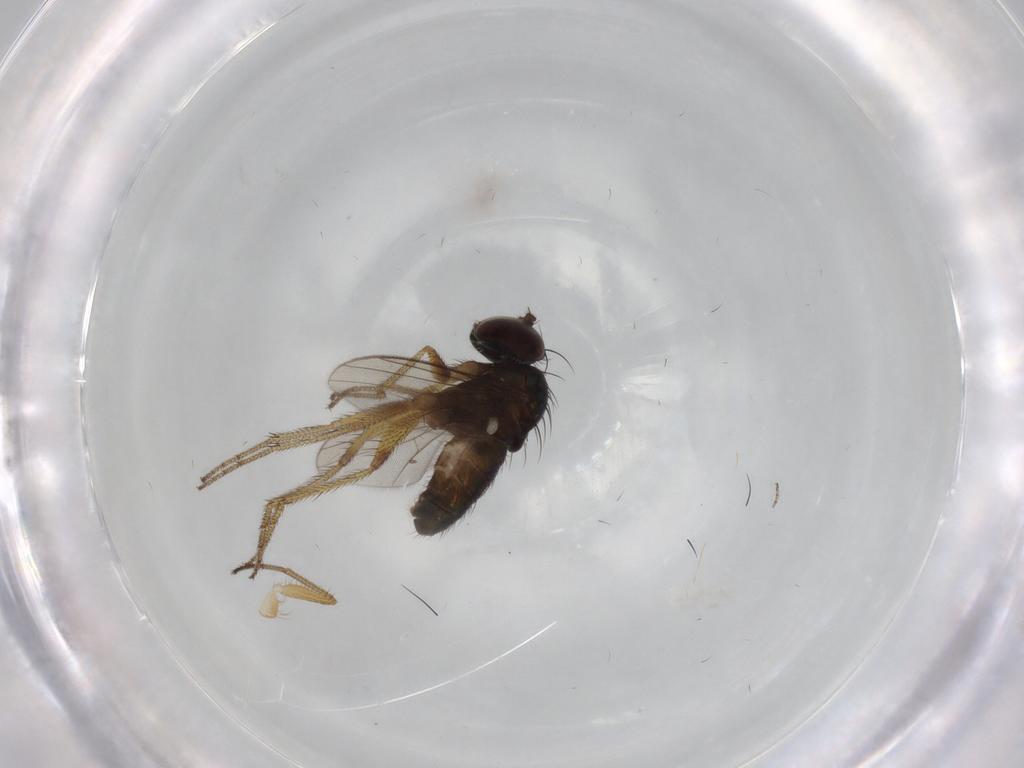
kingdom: Animalia
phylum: Arthropoda
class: Insecta
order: Diptera
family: Dolichopodidae
